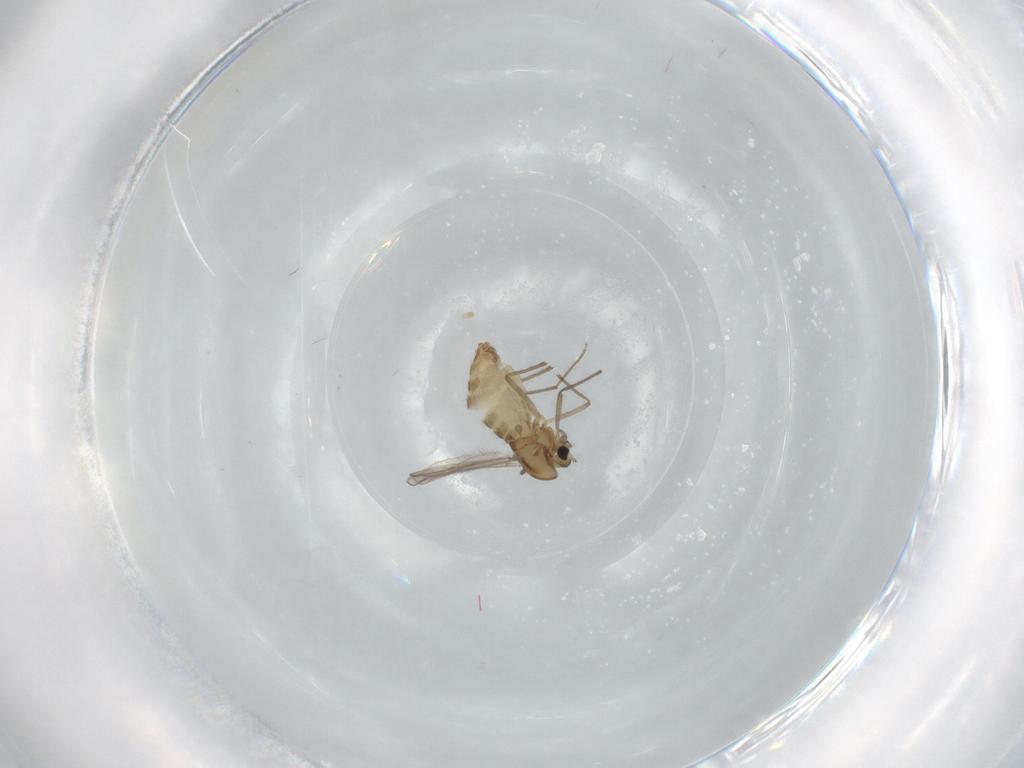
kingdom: Animalia
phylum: Arthropoda
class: Insecta
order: Diptera
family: Chironomidae
